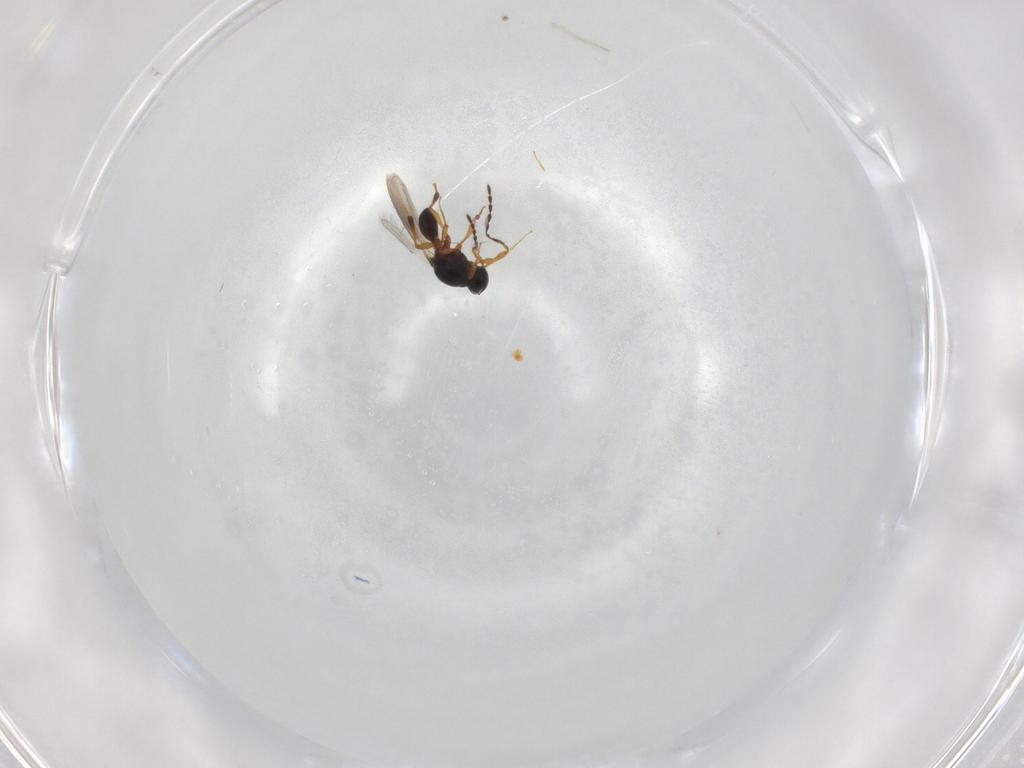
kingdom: Animalia
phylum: Arthropoda
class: Insecta
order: Hymenoptera
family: Platygastridae
